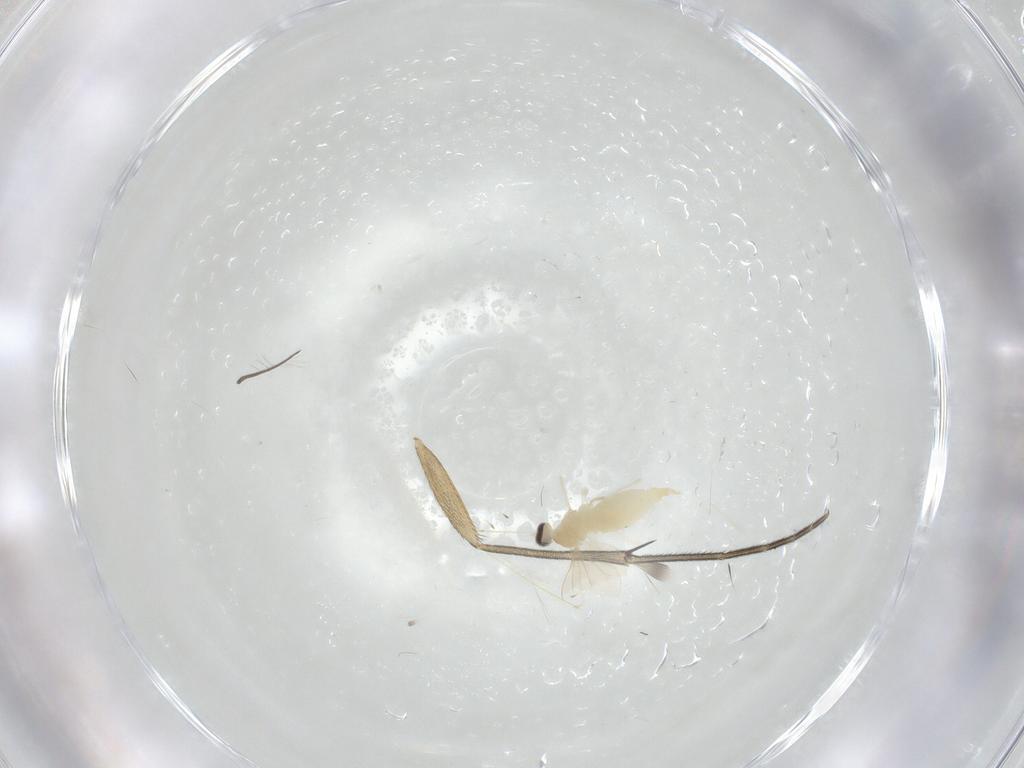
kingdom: Animalia
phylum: Arthropoda
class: Insecta
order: Diptera
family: Cecidomyiidae
